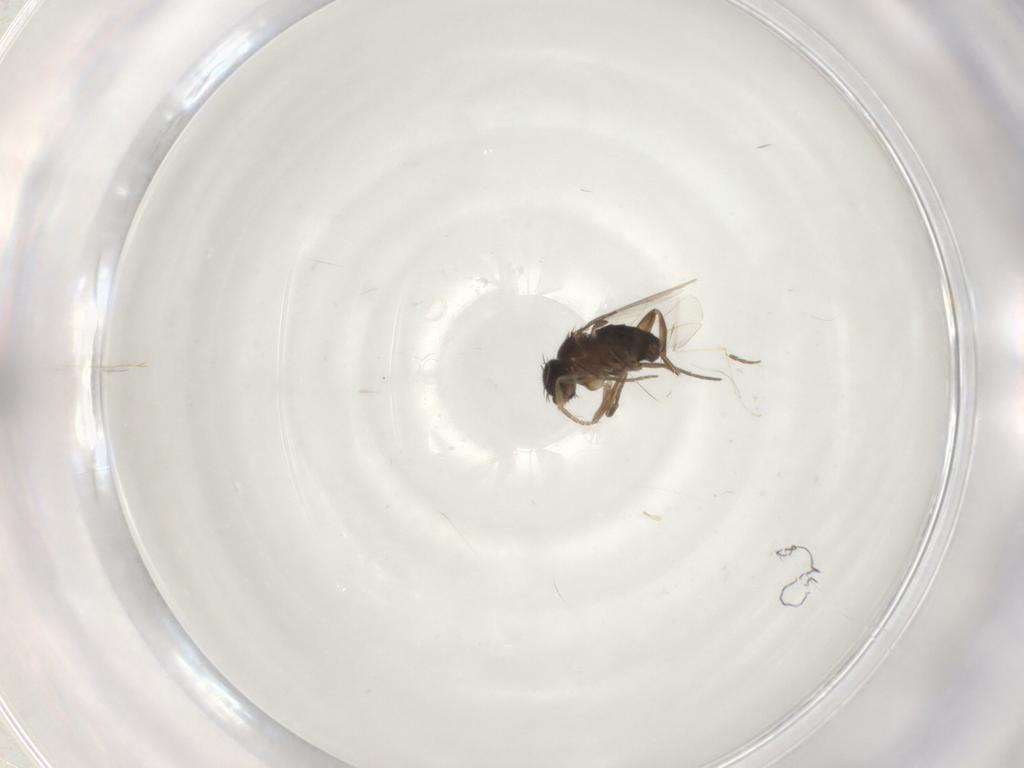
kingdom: Animalia
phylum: Arthropoda
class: Insecta
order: Diptera
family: Phoridae
